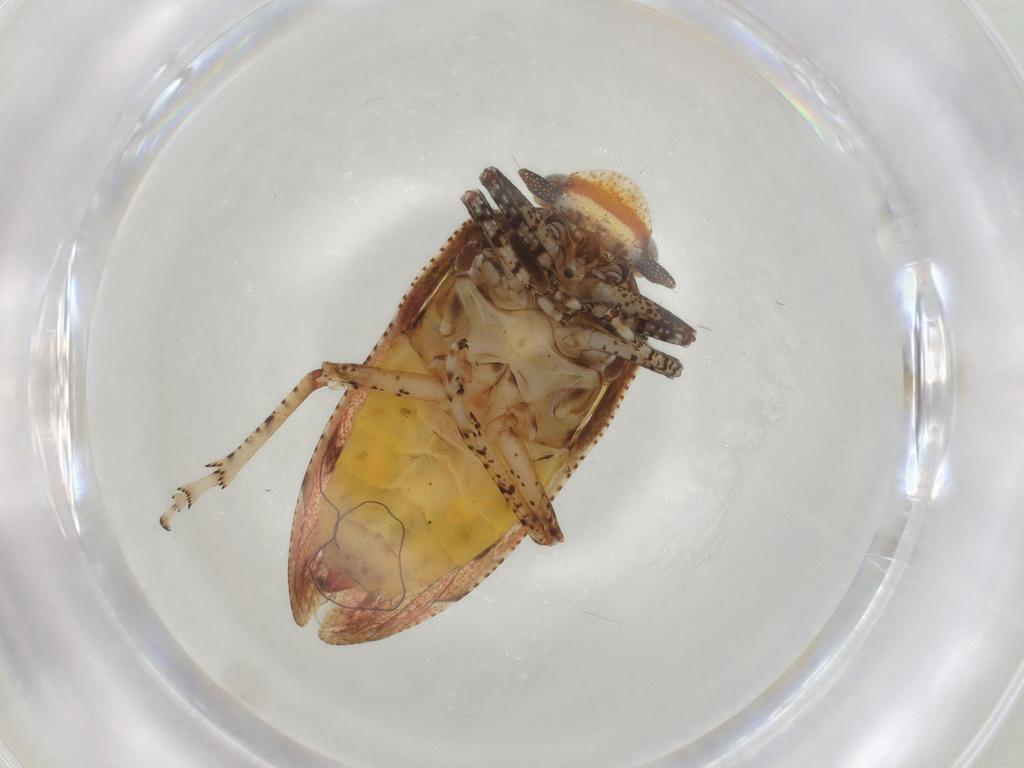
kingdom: Animalia
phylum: Arthropoda
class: Insecta
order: Hemiptera
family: Tettigometridae
